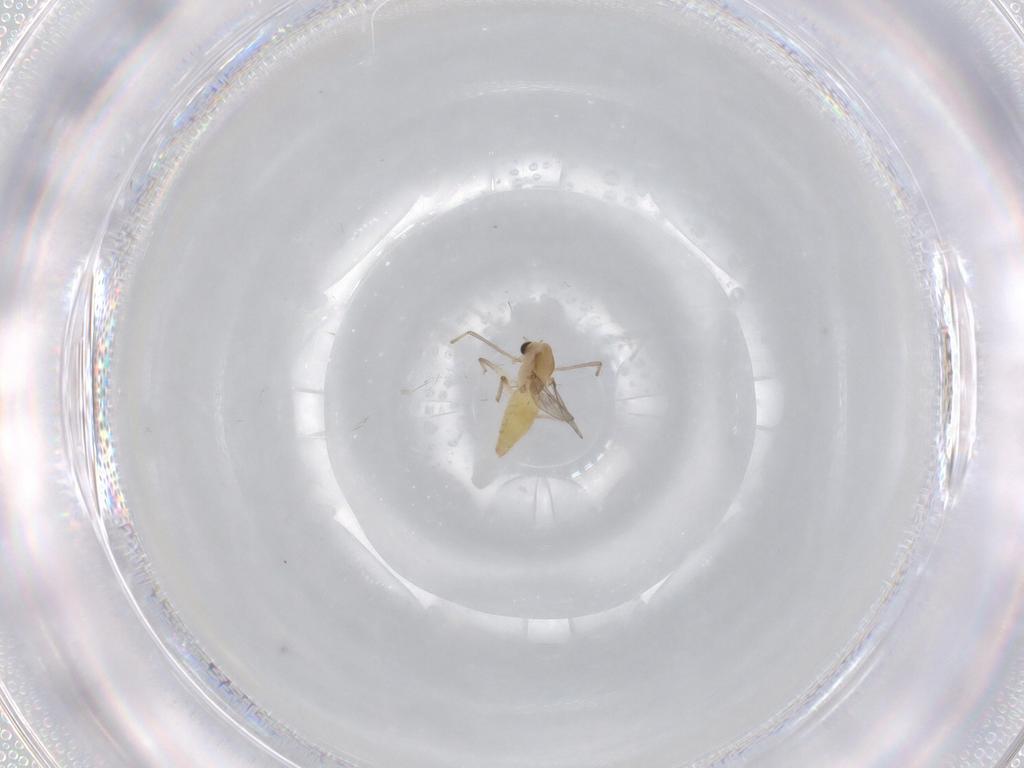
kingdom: Animalia
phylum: Arthropoda
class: Insecta
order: Diptera
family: Chironomidae
